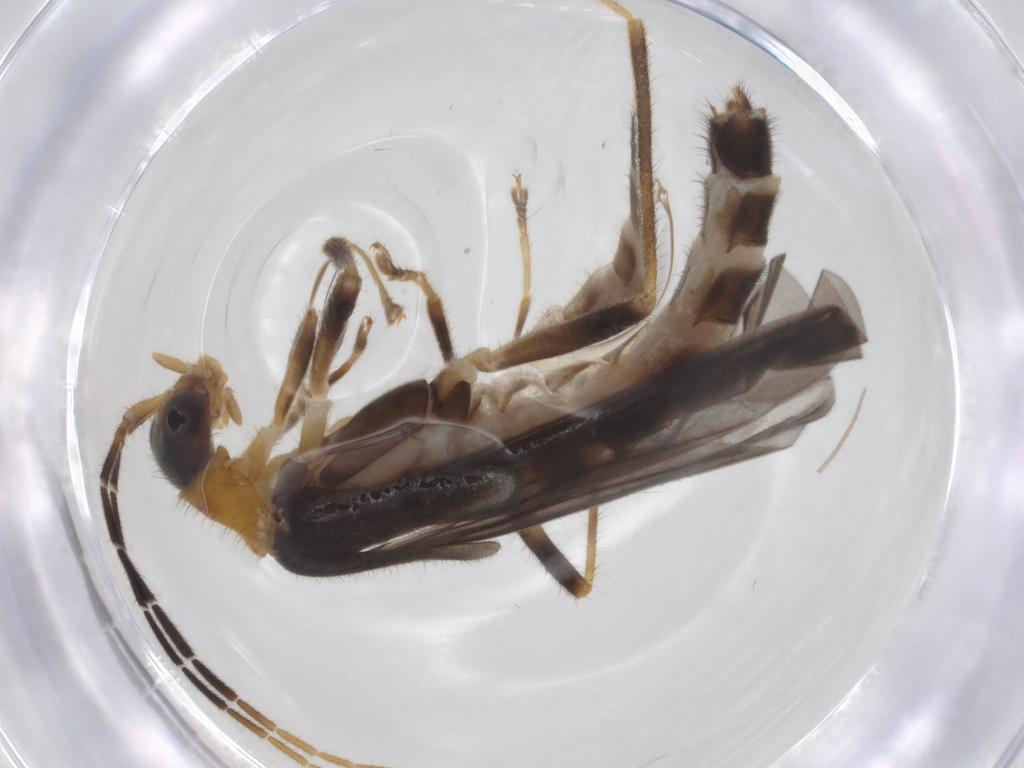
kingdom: Animalia
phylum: Arthropoda
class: Insecta
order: Coleoptera
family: Cantharidae
